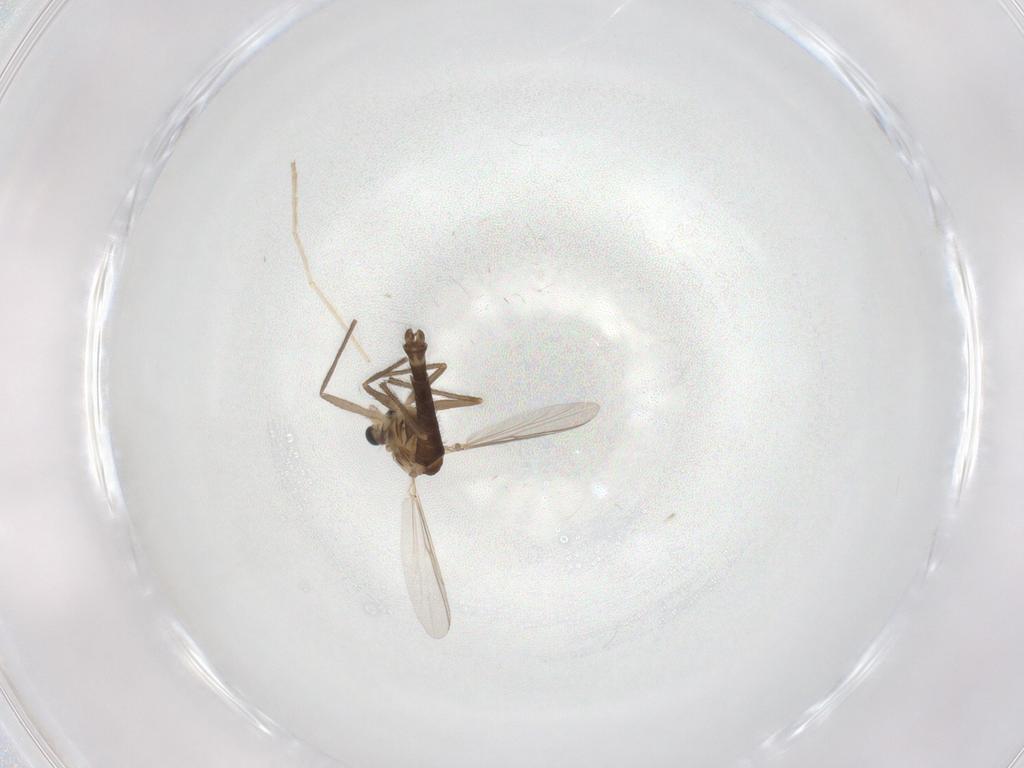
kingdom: Animalia
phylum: Arthropoda
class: Insecta
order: Diptera
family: Chironomidae
